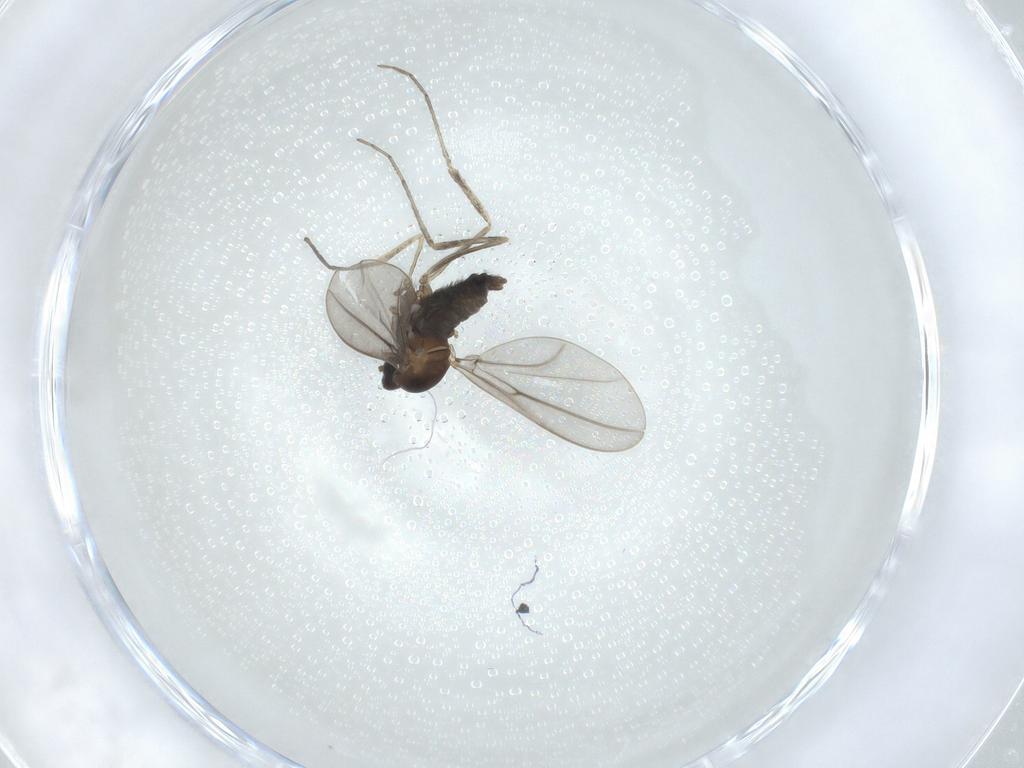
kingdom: Animalia
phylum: Arthropoda
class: Insecta
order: Diptera
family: Cecidomyiidae
